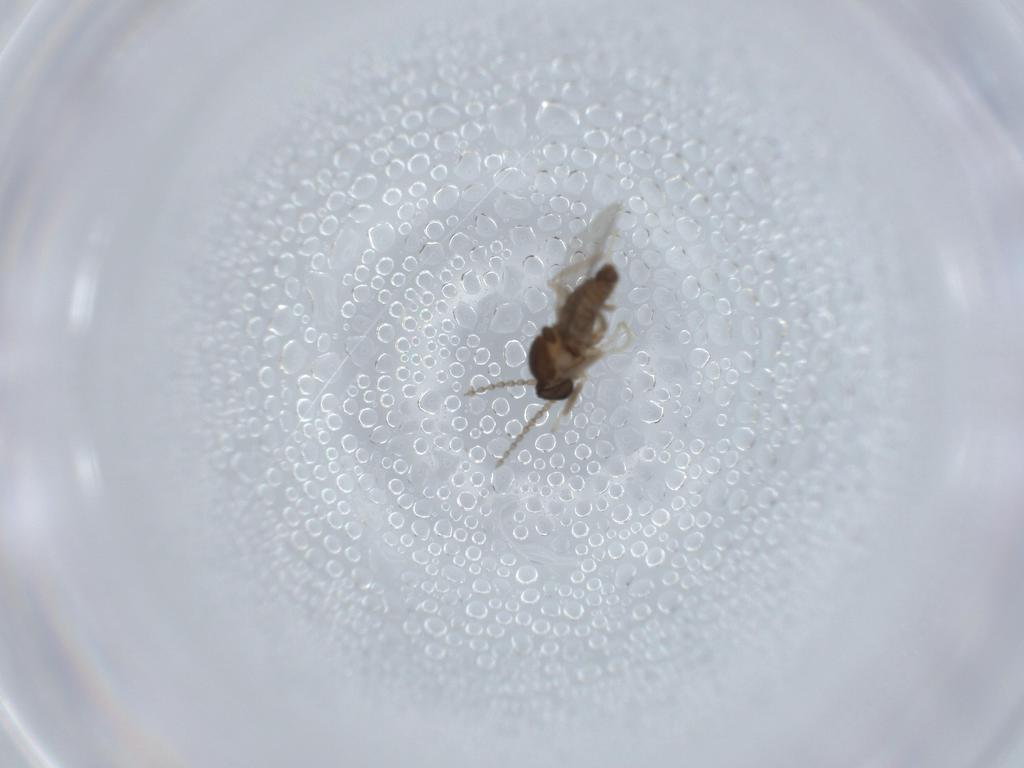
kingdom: Animalia
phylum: Arthropoda
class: Insecta
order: Diptera
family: Cecidomyiidae
